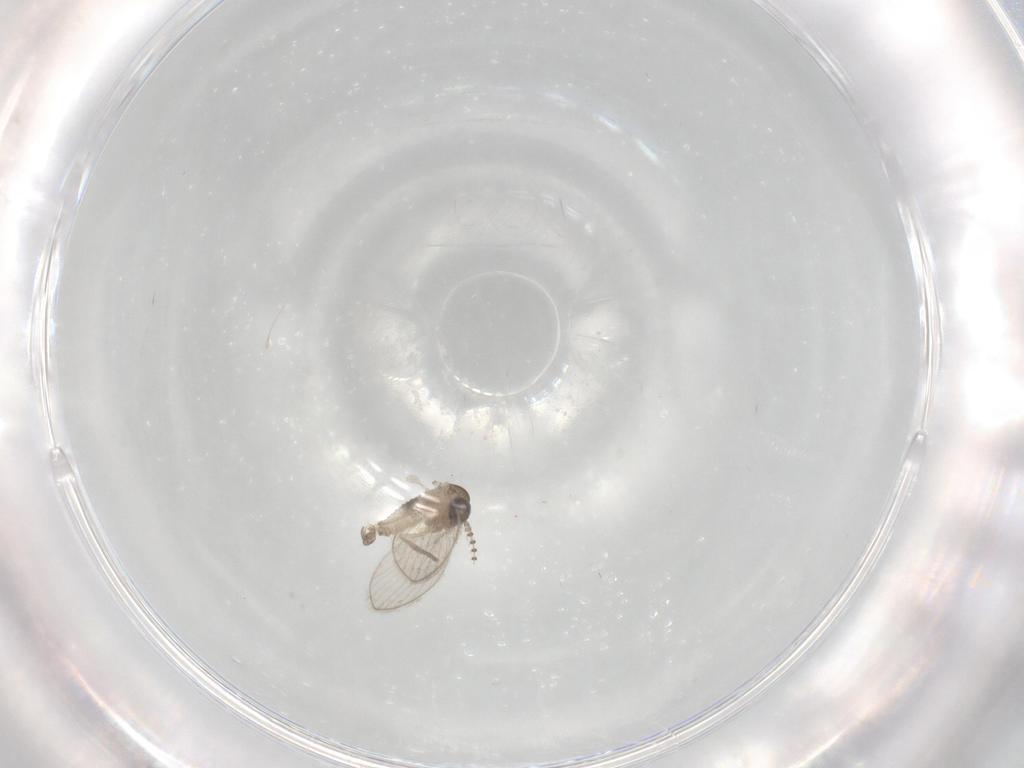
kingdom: Animalia
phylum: Arthropoda
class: Insecta
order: Diptera
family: Psychodidae
